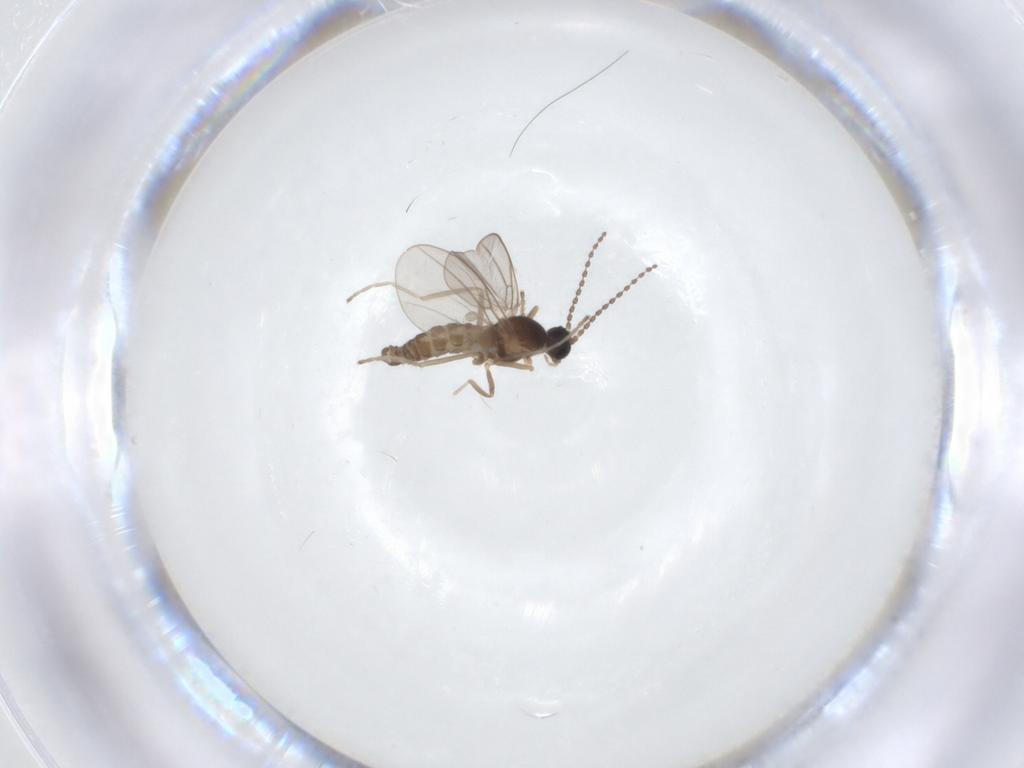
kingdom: Animalia
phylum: Arthropoda
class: Insecta
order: Diptera
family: Cecidomyiidae
